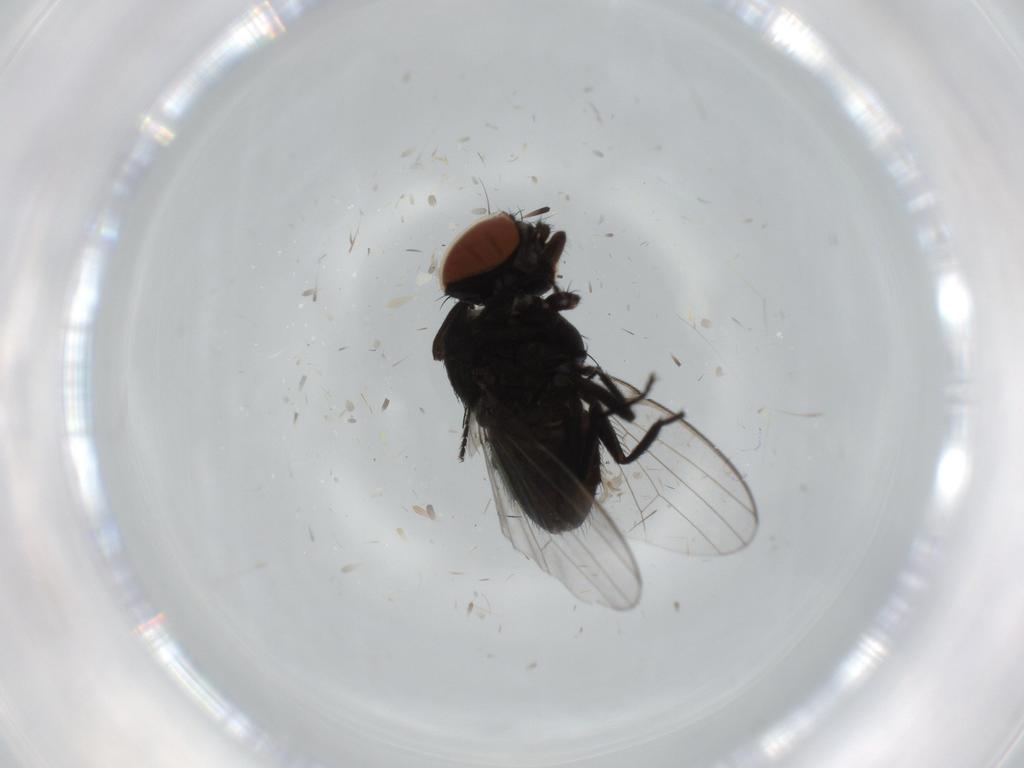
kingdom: Animalia
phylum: Arthropoda
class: Insecta
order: Diptera
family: Milichiidae
